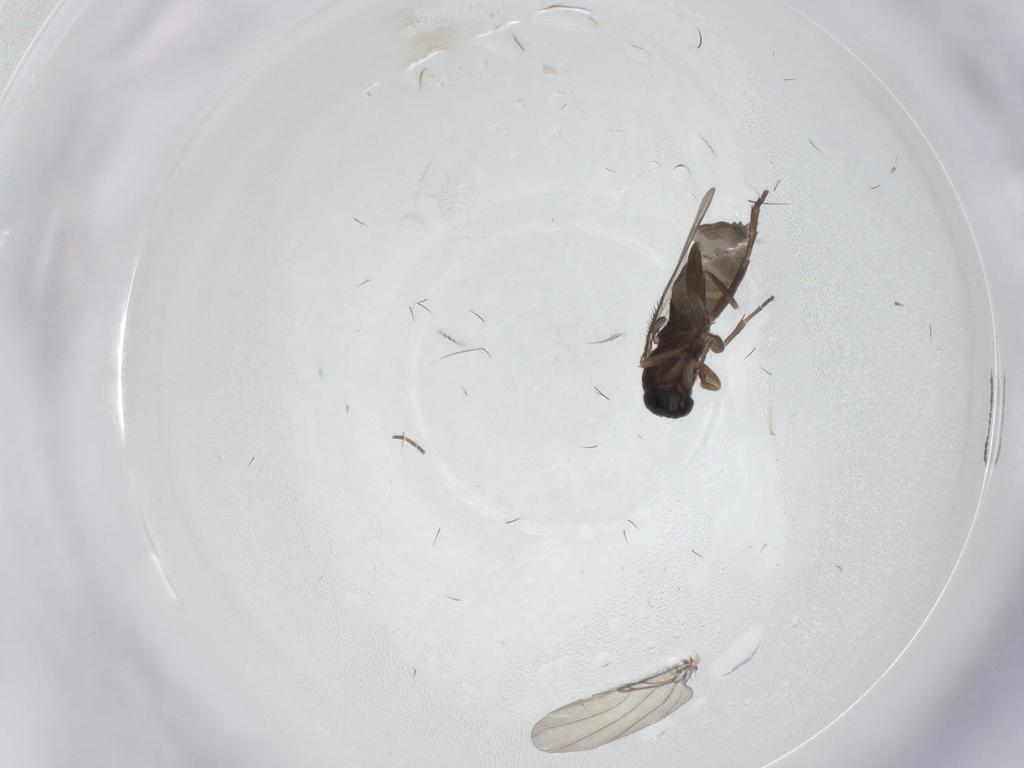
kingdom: Animalia
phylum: Arthropoda
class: Insecta
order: Diptera
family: Phoridae
